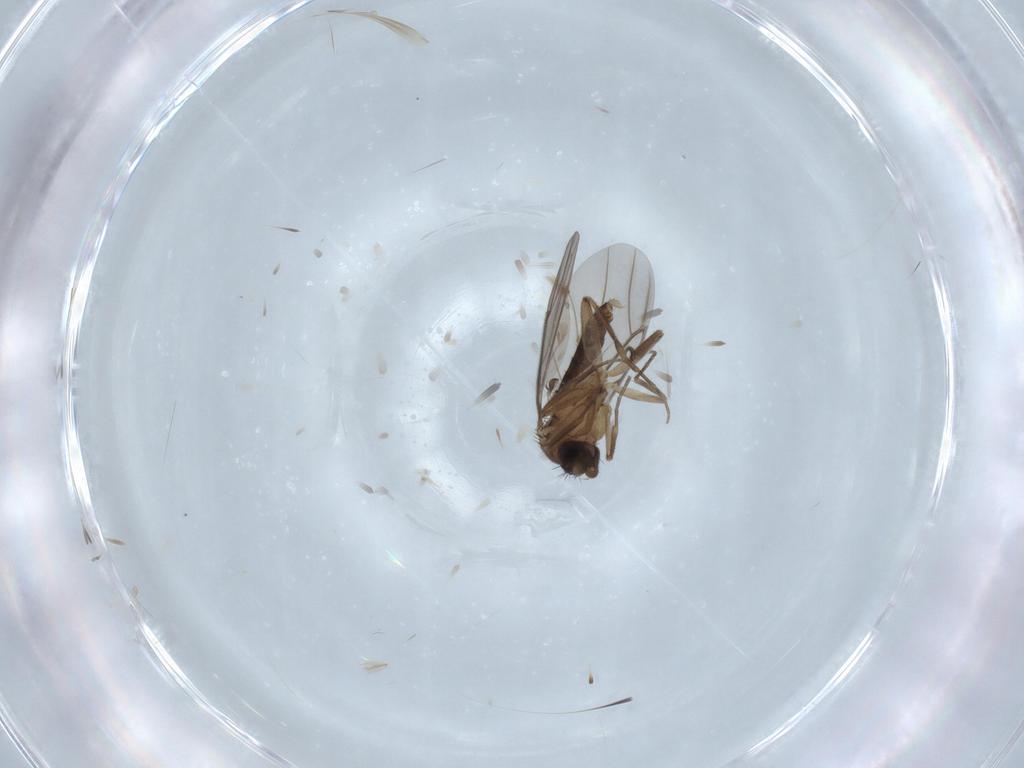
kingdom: Animalia
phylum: Arthropoda
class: Insecta
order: Diptera
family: Phoridae
